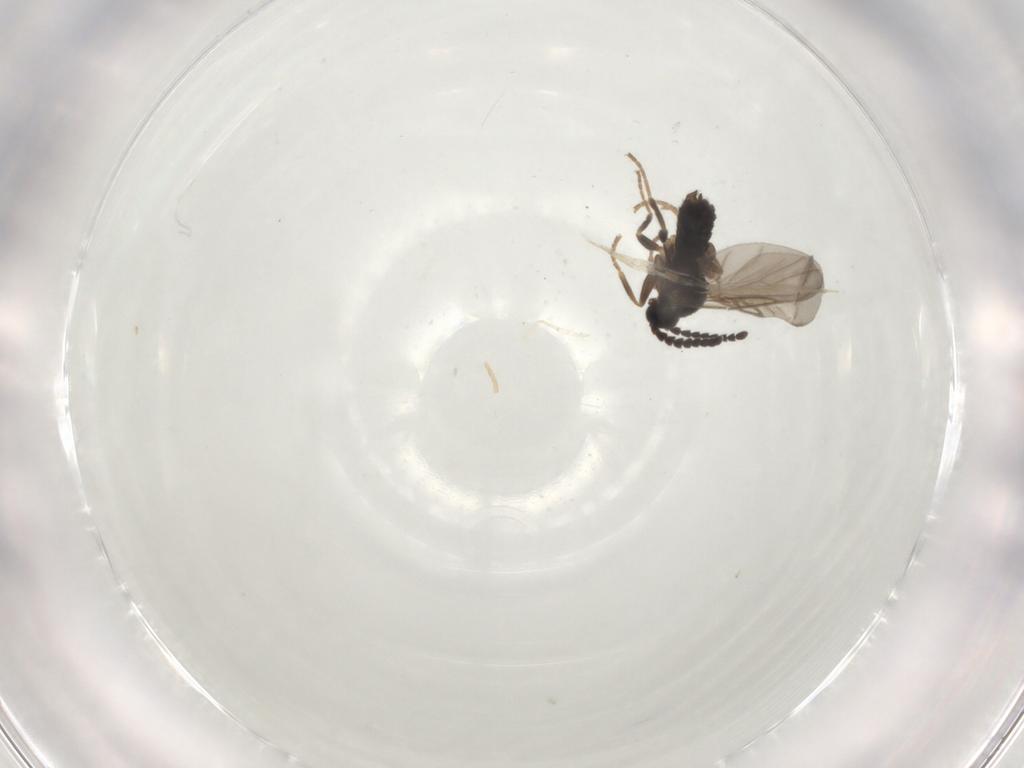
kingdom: Animalia
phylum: Arthropoda
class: Insecta
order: Diptera
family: Scatopsidae
